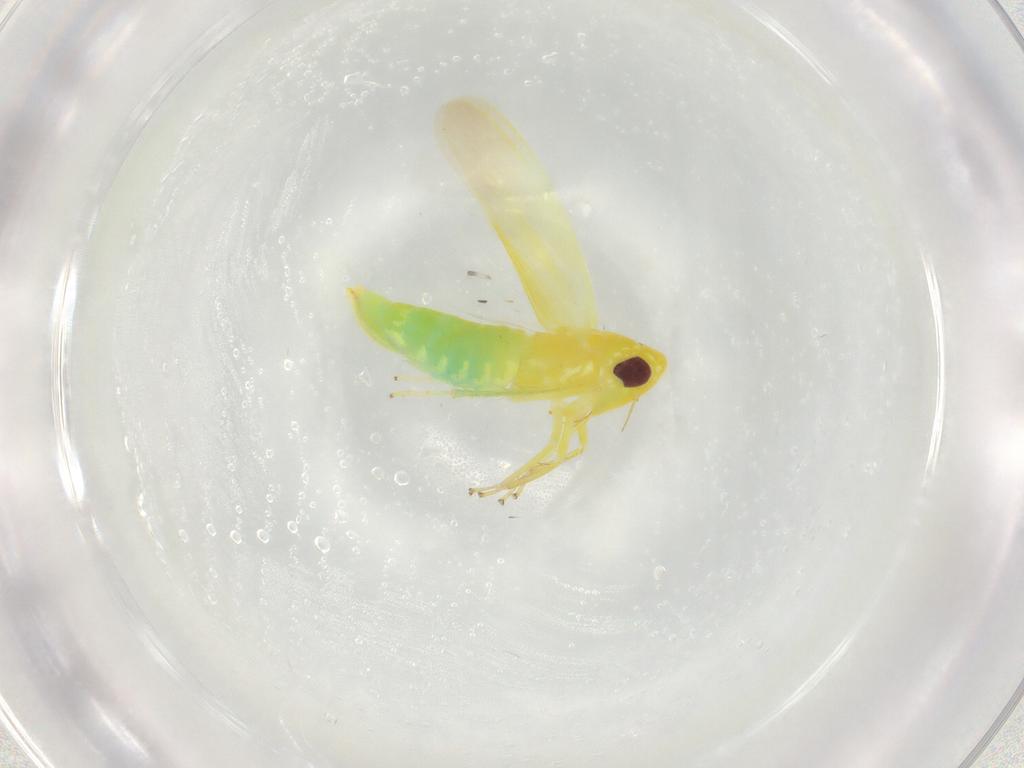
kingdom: Animalia
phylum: Arthropoda
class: Insecta
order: Hemiptera
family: Cicadellidae
